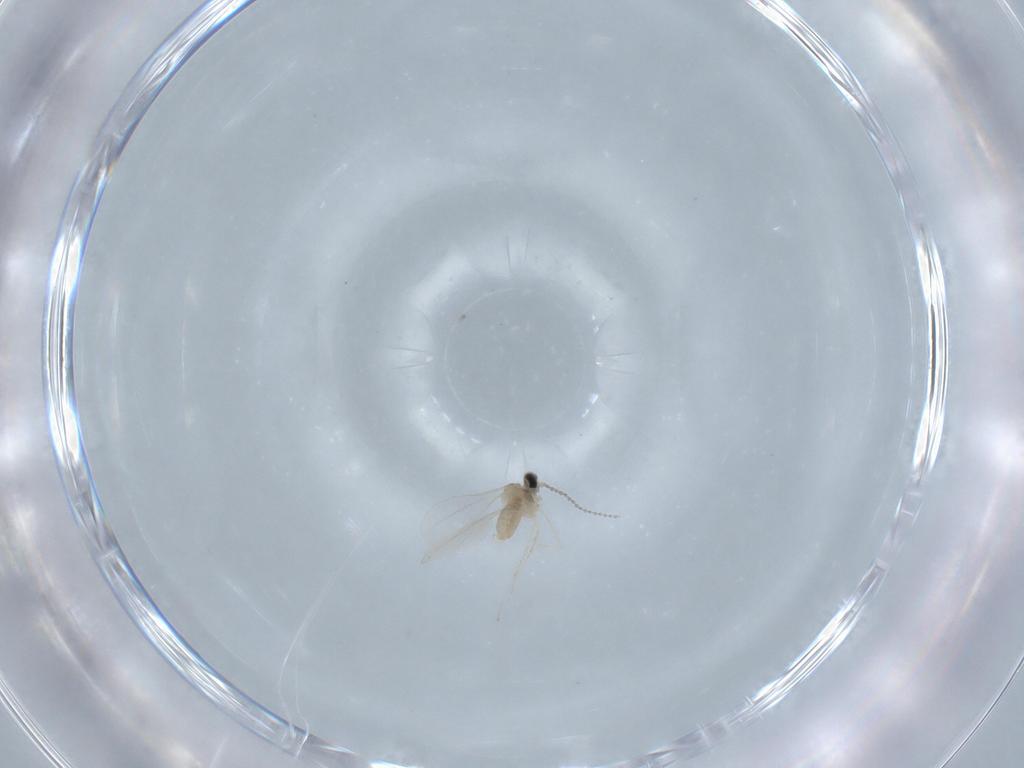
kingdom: Animalia
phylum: Arthropoda
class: Insecta
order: Diptera
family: Cecidomyiidae
